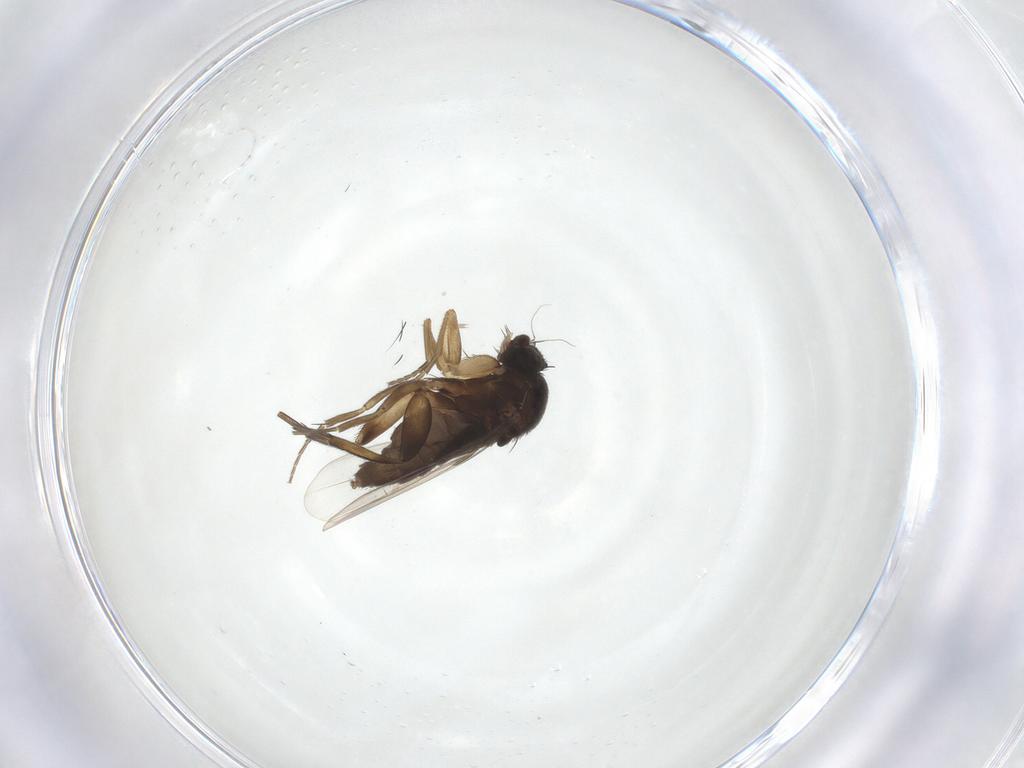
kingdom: Animalia
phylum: Arthropoda
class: Insecta
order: Diptera
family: Phoridae
